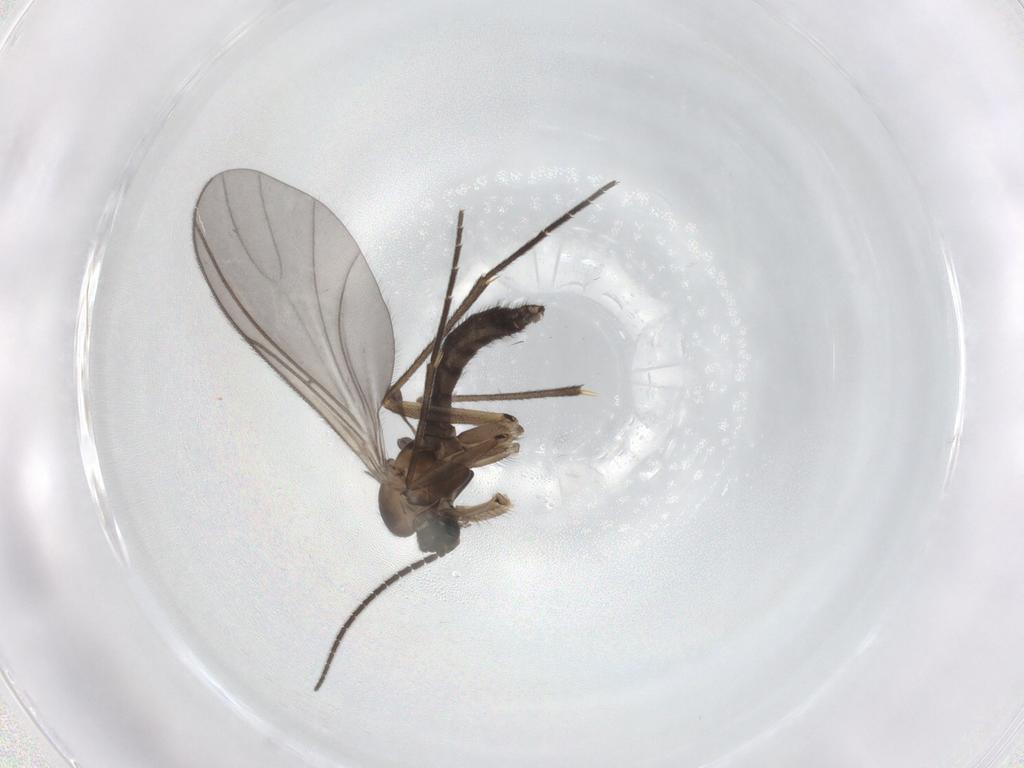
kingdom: Animalia
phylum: Arthropoda
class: Insecta
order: Diptera
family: Sciaridae
